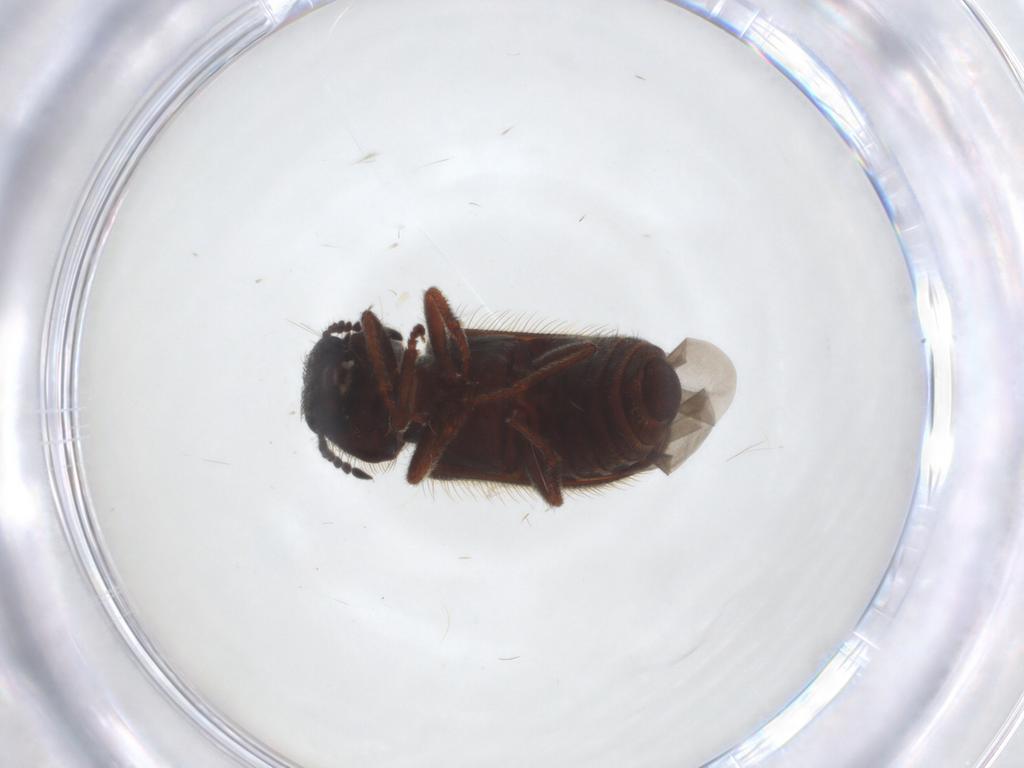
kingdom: Animalia
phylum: Arthropoda
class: Insecta
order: Coleoptera
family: Melyridae
